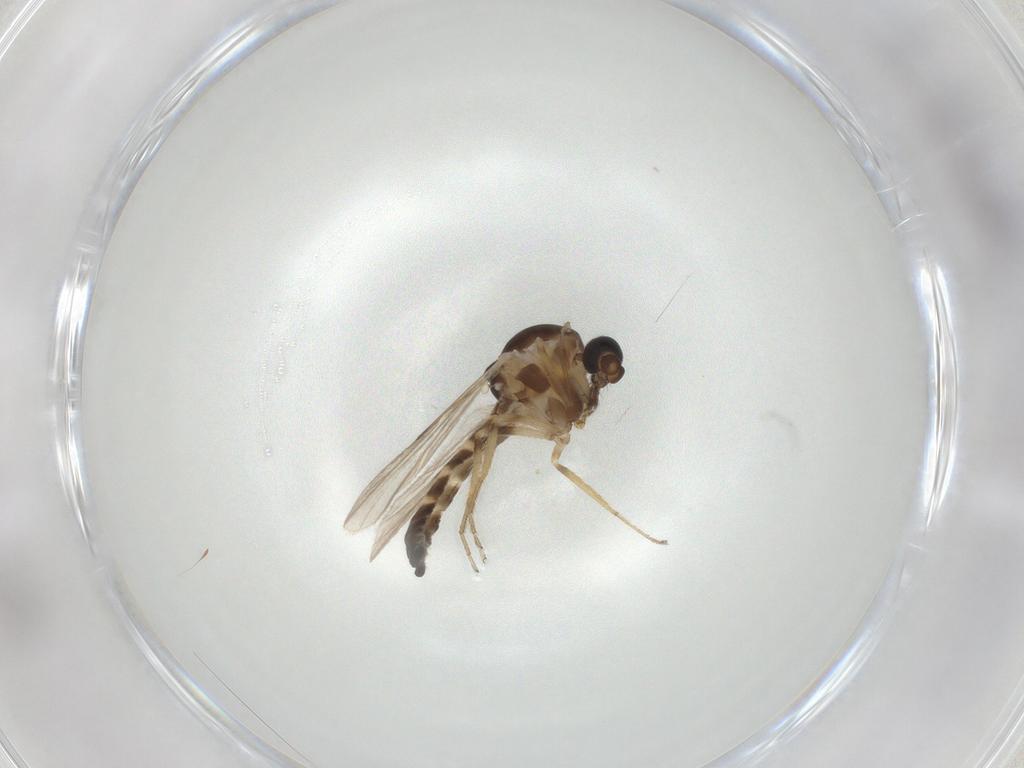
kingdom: Animalia
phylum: Arthropoda
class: Insecta
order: Diptera
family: Ceratopogonidae
